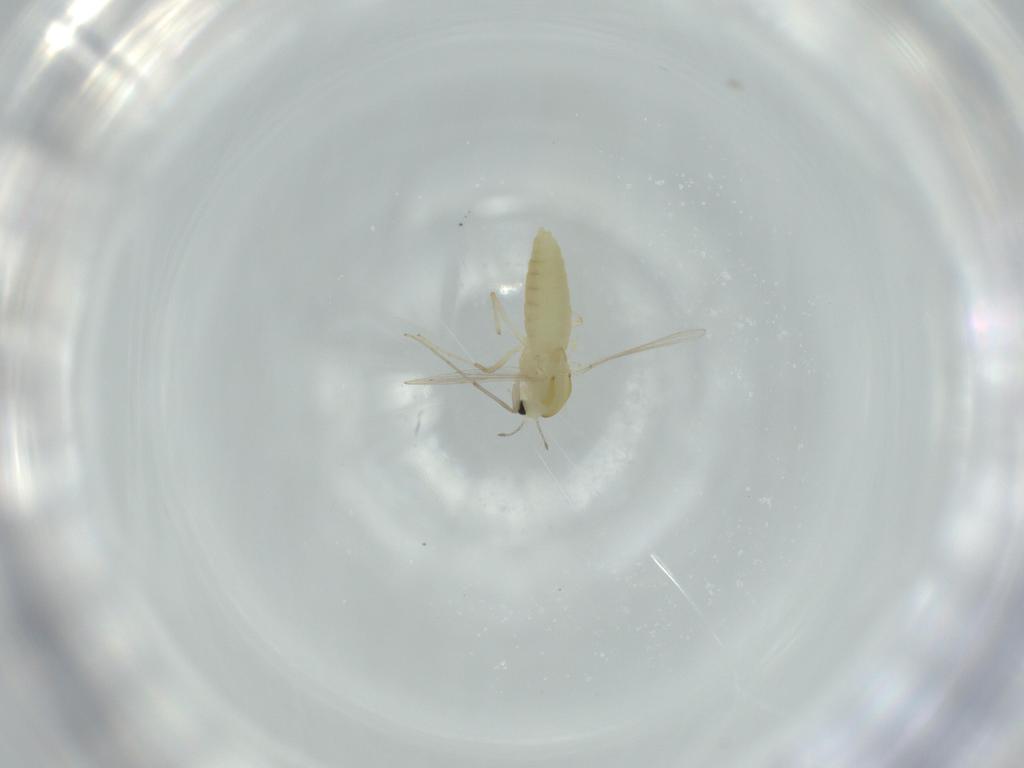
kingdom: Animalia
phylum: Arthropoda
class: Insecta
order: Diptera
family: Chironomidae
